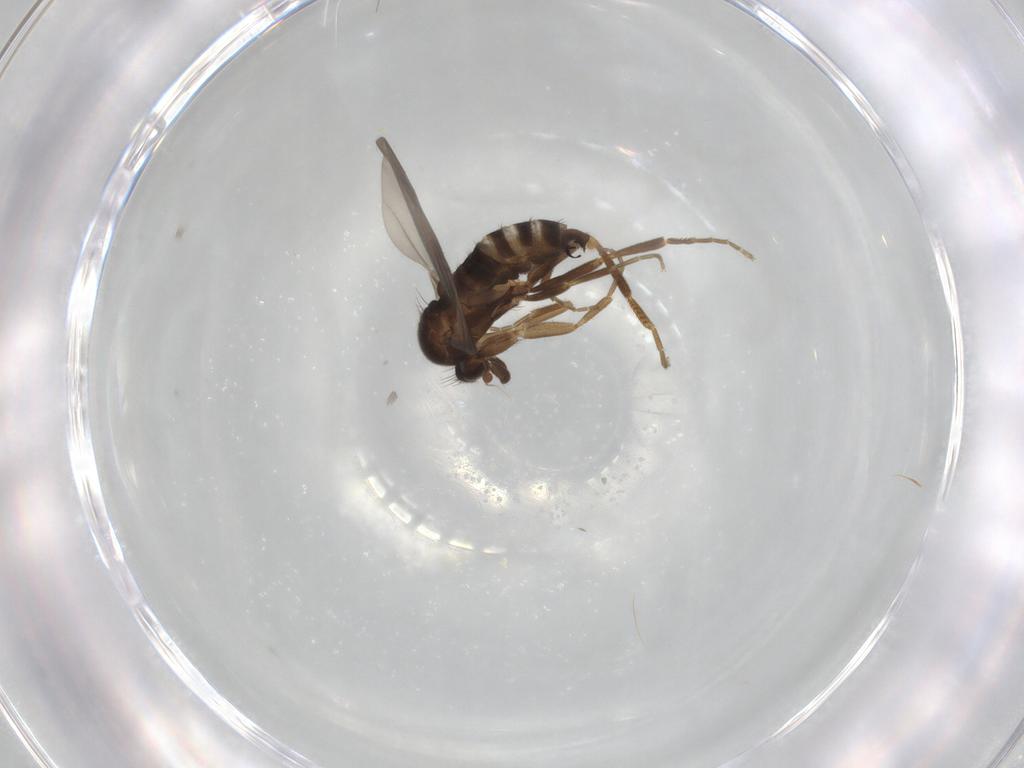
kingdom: Animalia
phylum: Arthropoda
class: Insecta
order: Diptera
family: Phoridae
